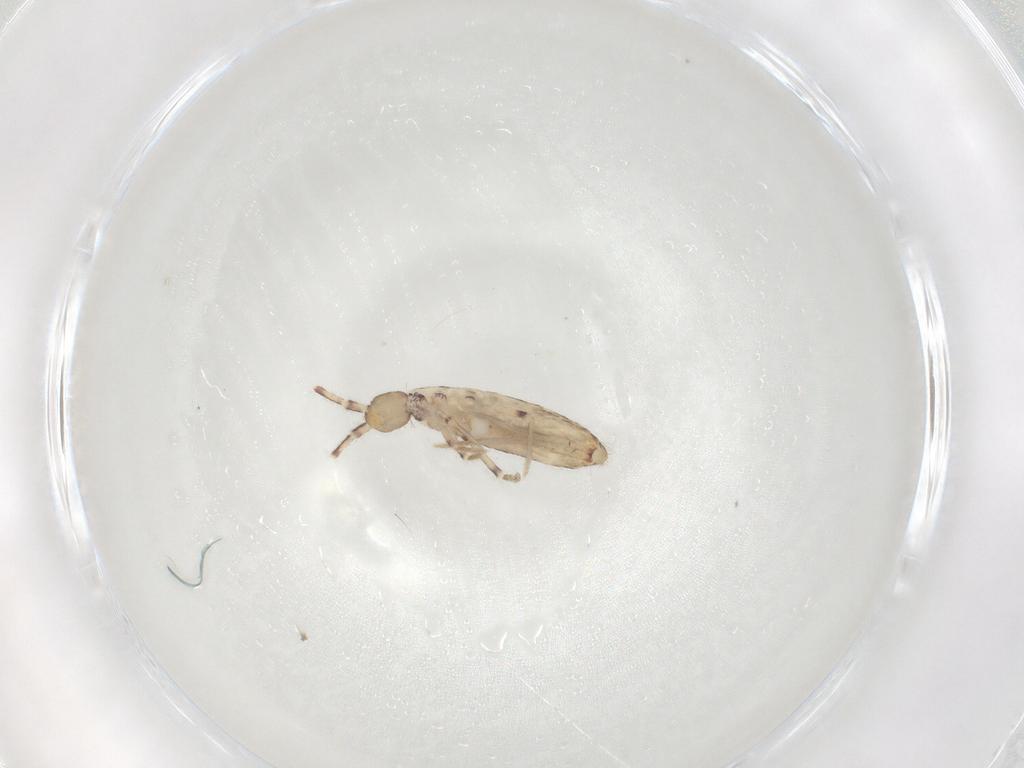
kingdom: Animalia
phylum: Arthropoda
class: Collembola
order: Entomobryomorpha
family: Entomobryidae
